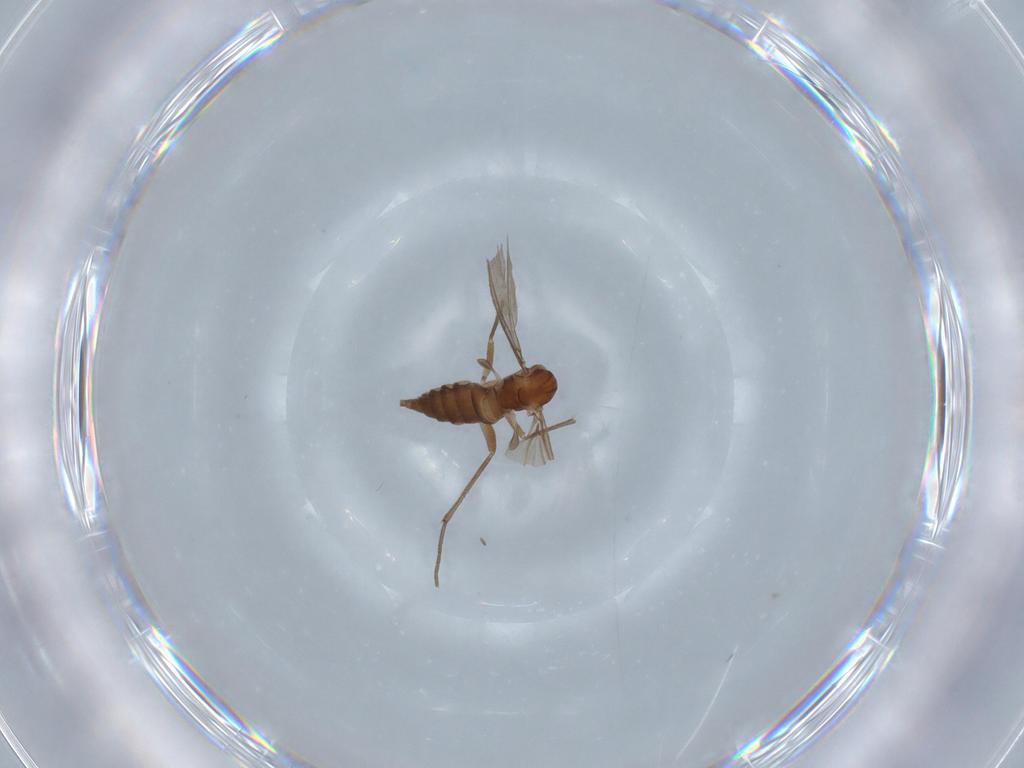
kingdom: Animalia
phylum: Arthropoda
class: Insecta
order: Diptera
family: Sciaridae
